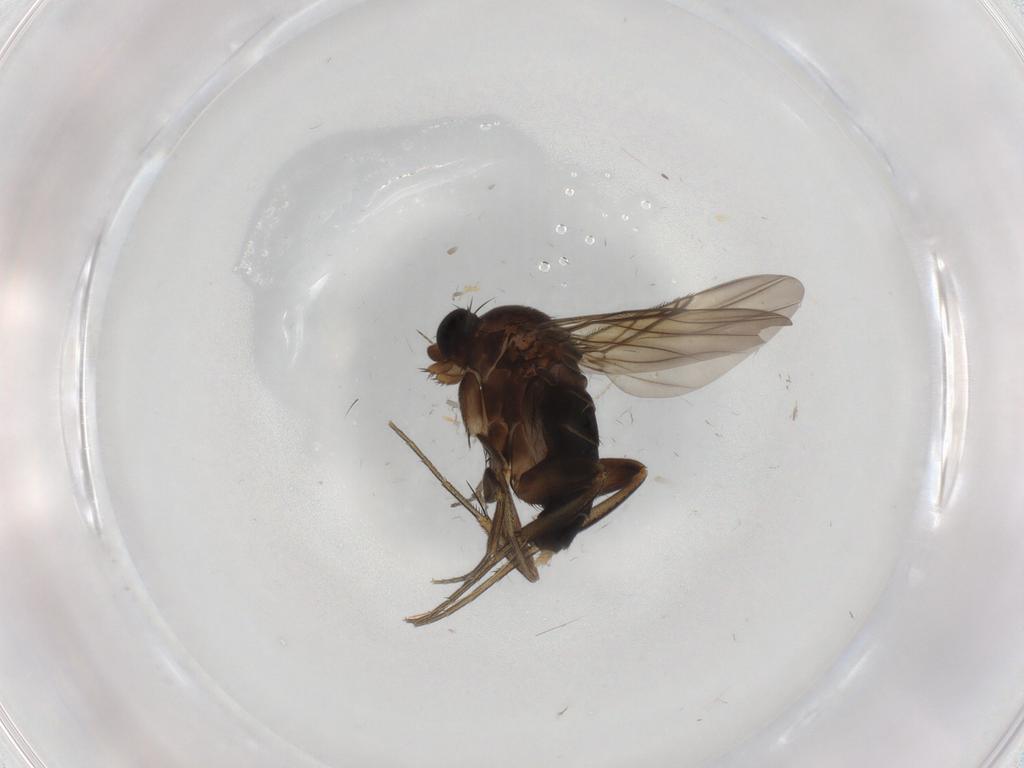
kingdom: Animalia
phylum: Arthropoda
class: Insecta
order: Diptera
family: Phoridae
